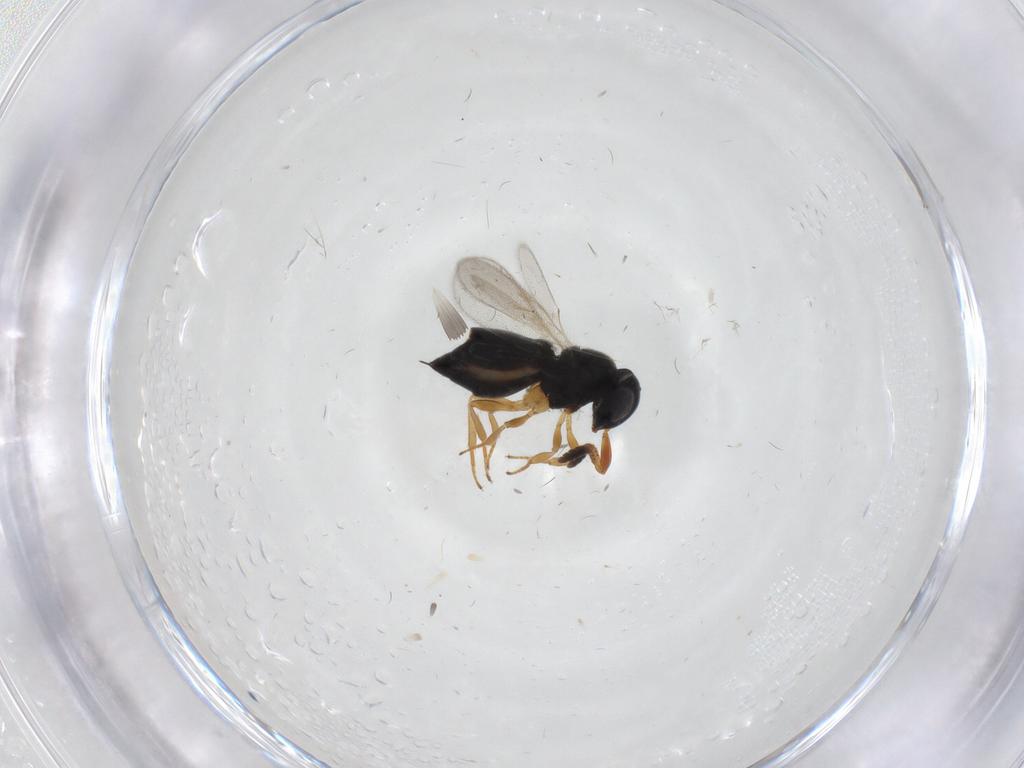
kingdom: Animalia
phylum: Arthropoda
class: Insecta
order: Hymenoptera
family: Scelionidae
